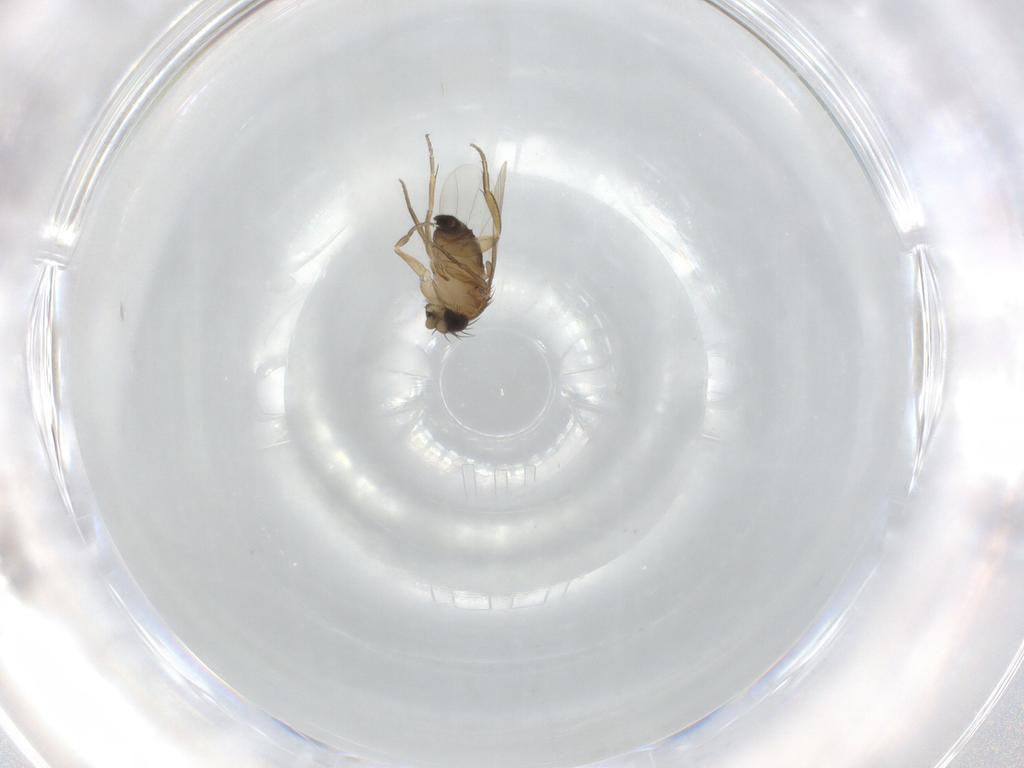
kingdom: Animalia
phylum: Arthropoda
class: Insecta
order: Diptera
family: Phoridae
